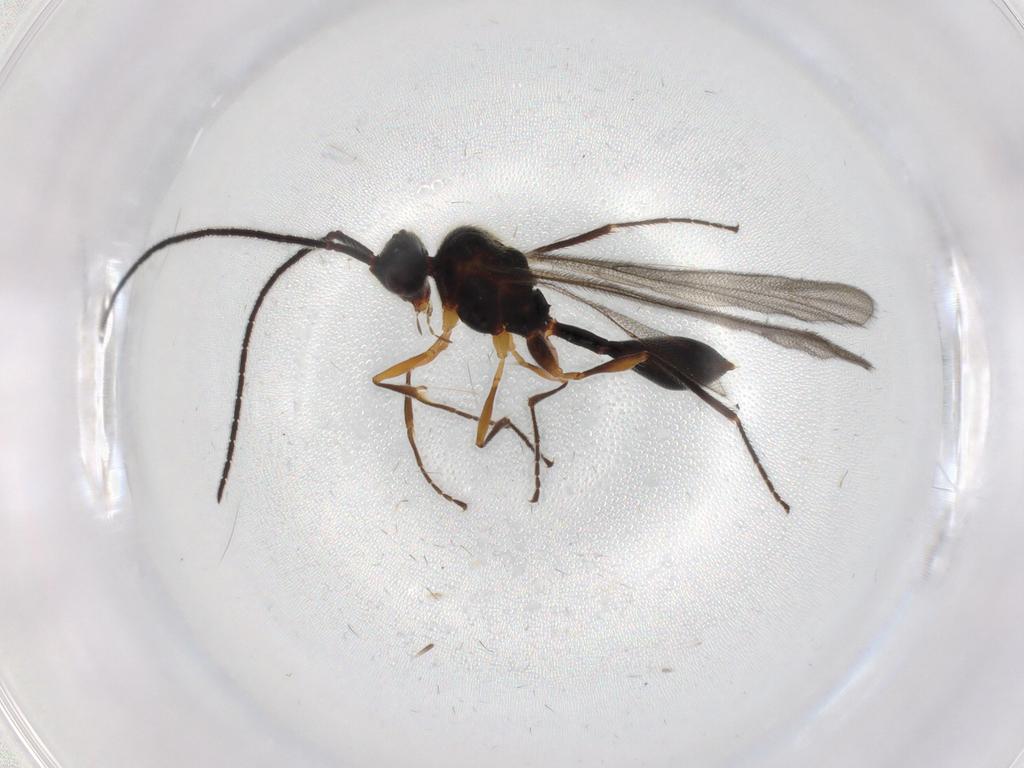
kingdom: Animalia
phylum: Arthropoda
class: Insecta
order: Hymenoptera
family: Diapriidae
